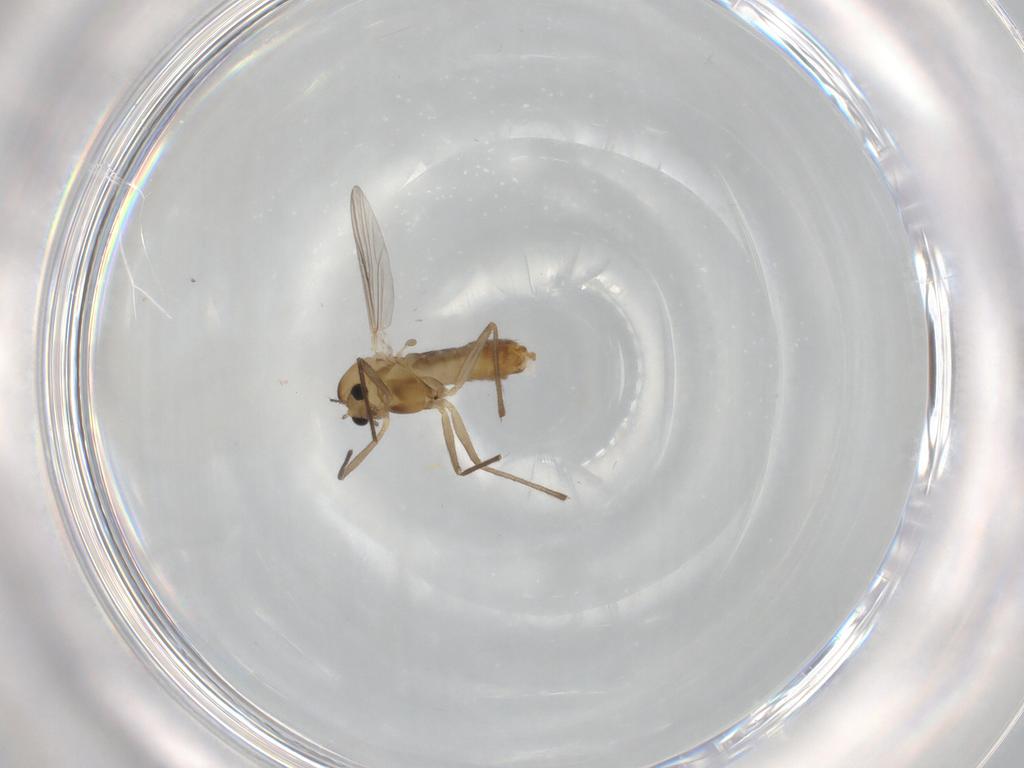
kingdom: Animalia
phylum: Arthropoda
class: Insecta
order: Diptera
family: Chironomidae
